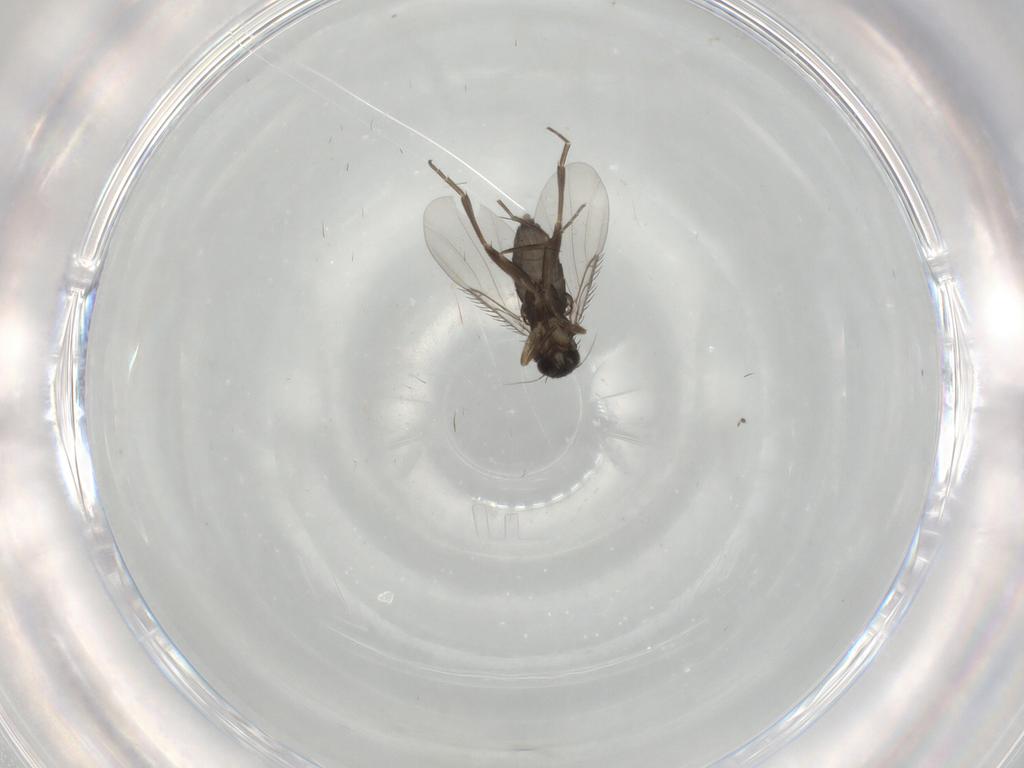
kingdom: Animalia
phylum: Arthropoda
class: Insecta
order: Diptera
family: Phoridae
